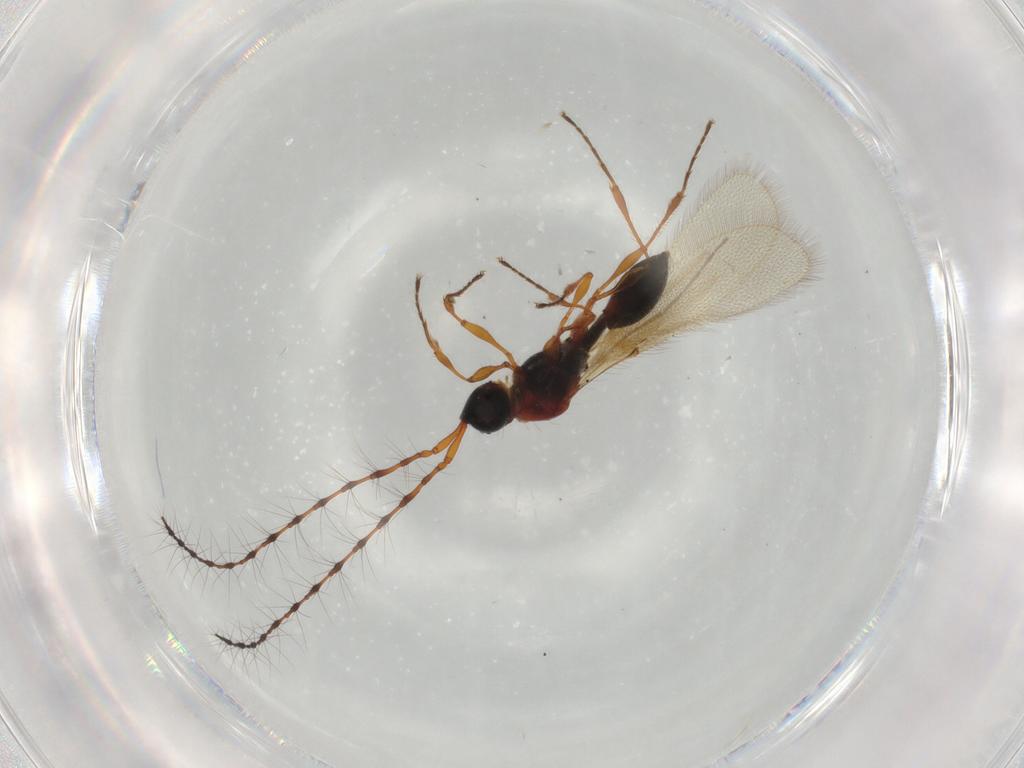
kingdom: Animalia
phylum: Arthropoda
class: Insecta
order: Hymenoptera
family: Diapriidae
